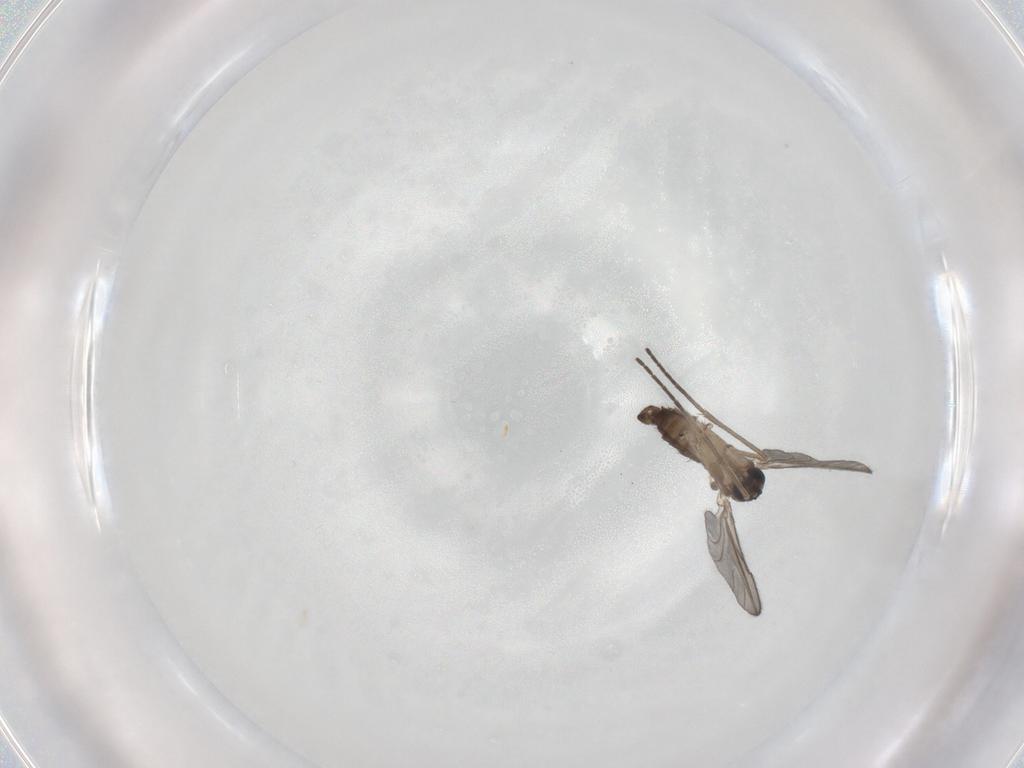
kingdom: Animalia
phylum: Arthropoda
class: Insecta
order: Diptera
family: Sciaridae
